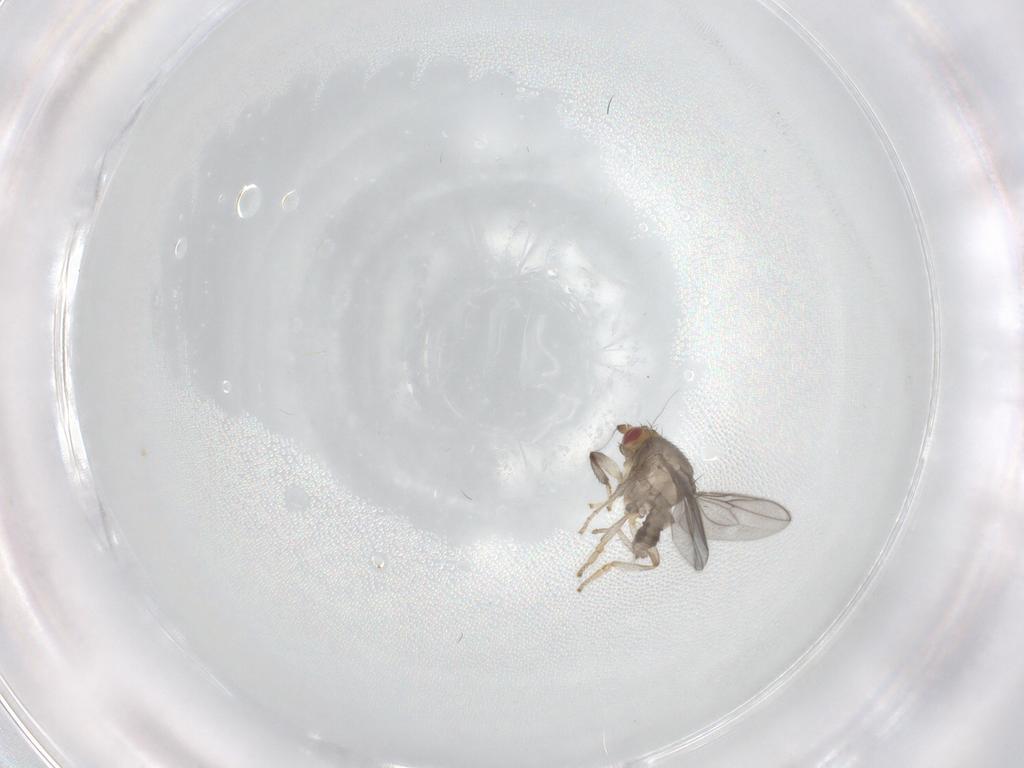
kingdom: Animalia
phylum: Arthropoda
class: Insecta
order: Diptera
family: Sphaeroceridae
